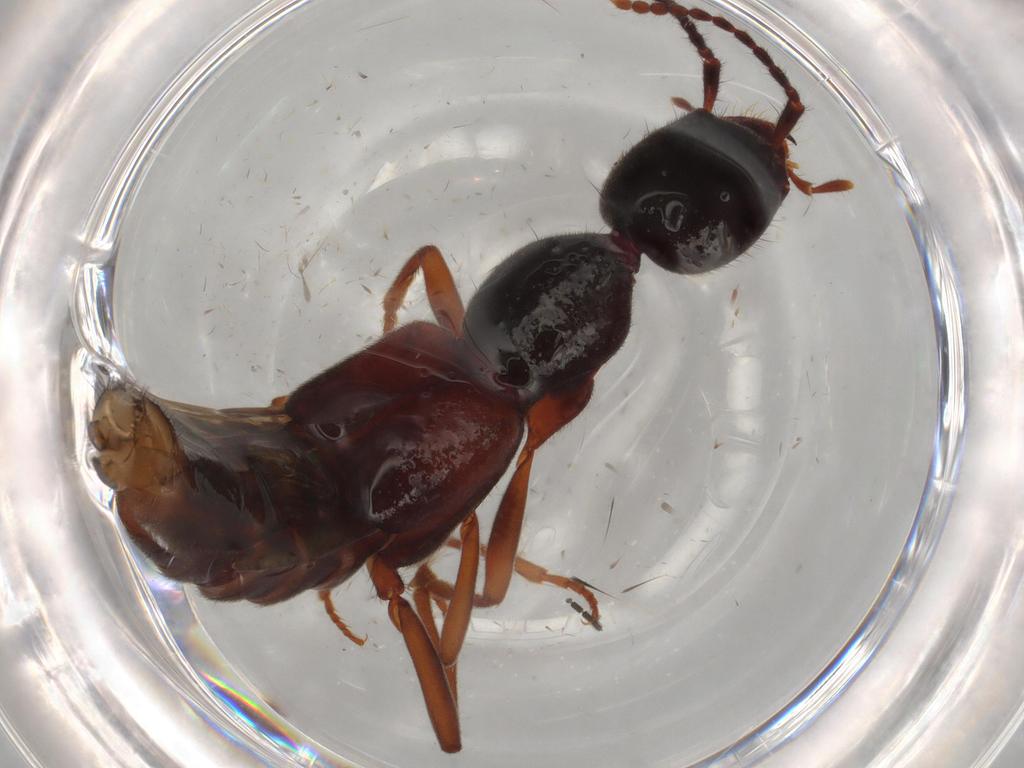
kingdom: Animalia
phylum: Arthropoda
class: Insecta
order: Coleoptera
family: Staphylinidae
